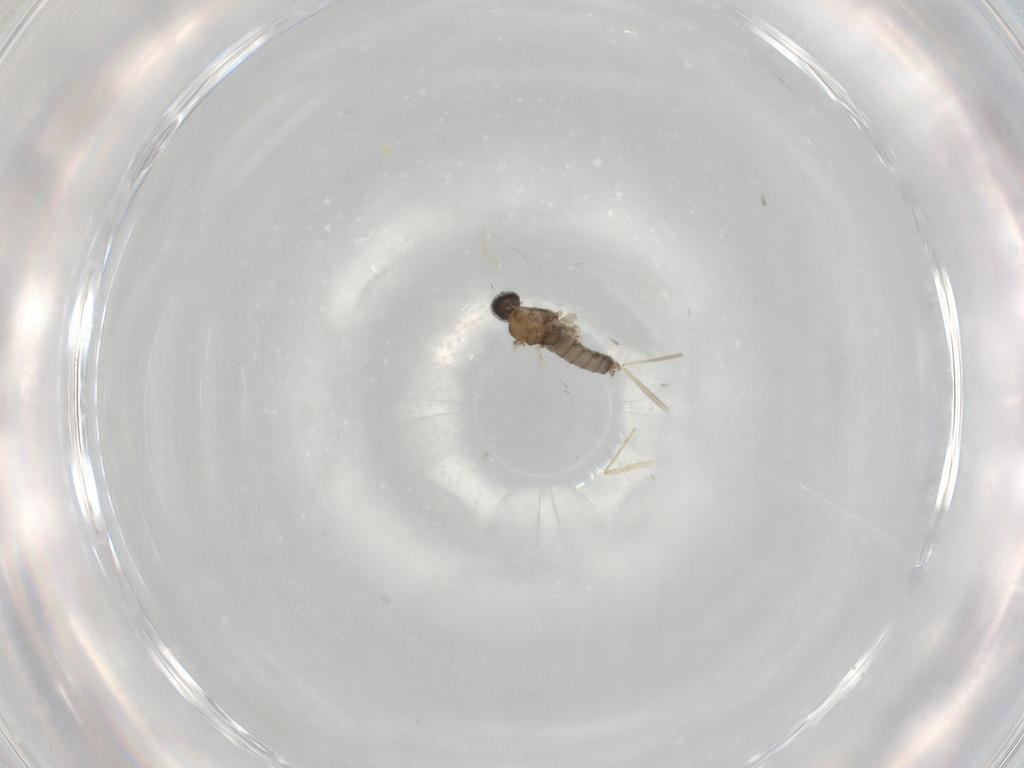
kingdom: Animalia
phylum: Arthropoda
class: Insecta
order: Diptera
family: Cecidomyiidae
